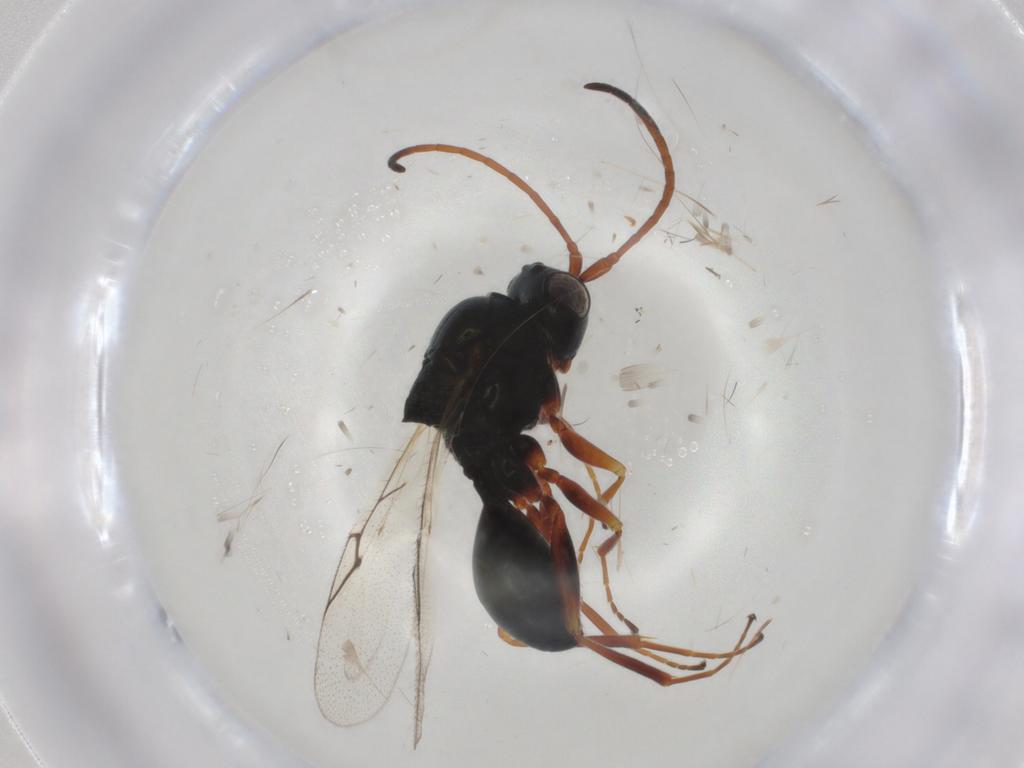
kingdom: Animalia
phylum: Arthropoda
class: Insecta
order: Hymenoptera
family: Figitidae
